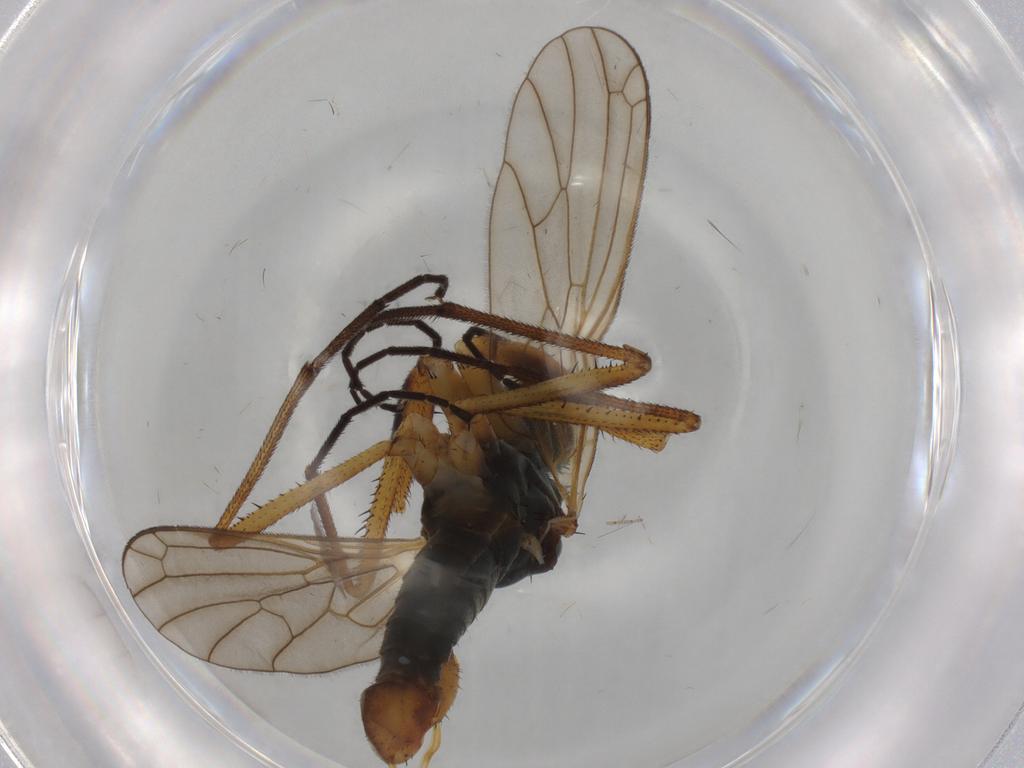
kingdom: Animalia
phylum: Arthropoda
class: Insecta
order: Diptera
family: Empididae
